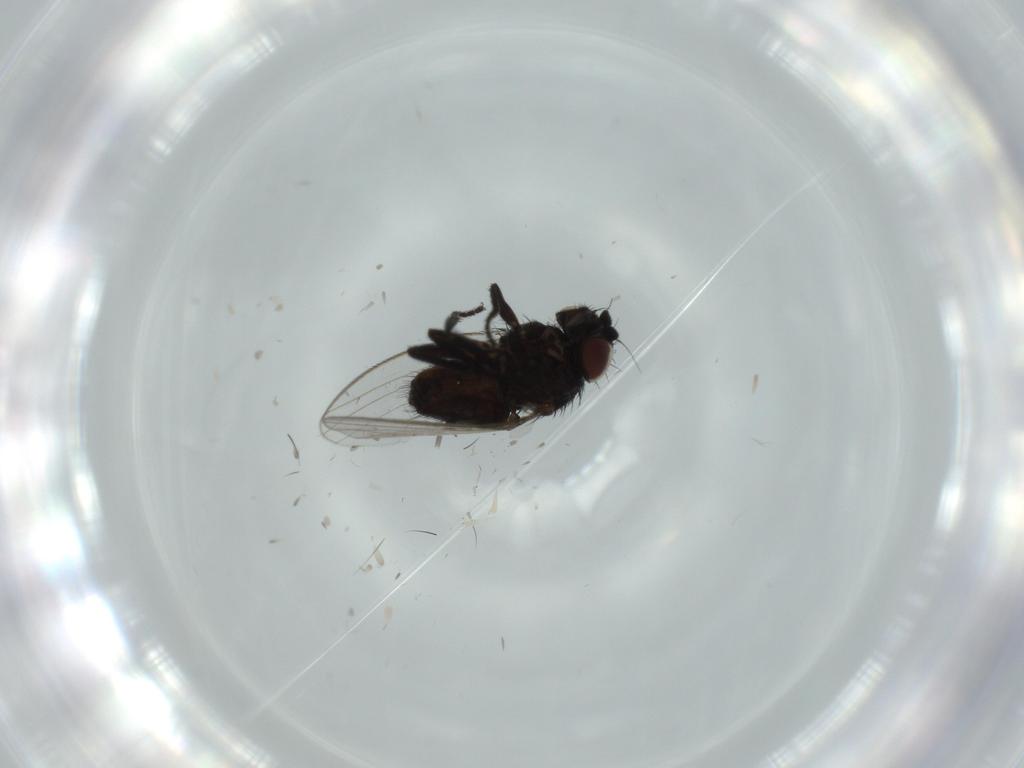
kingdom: Animalia
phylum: Arthropoda
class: Insecta
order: Diptera
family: Milichiidae
